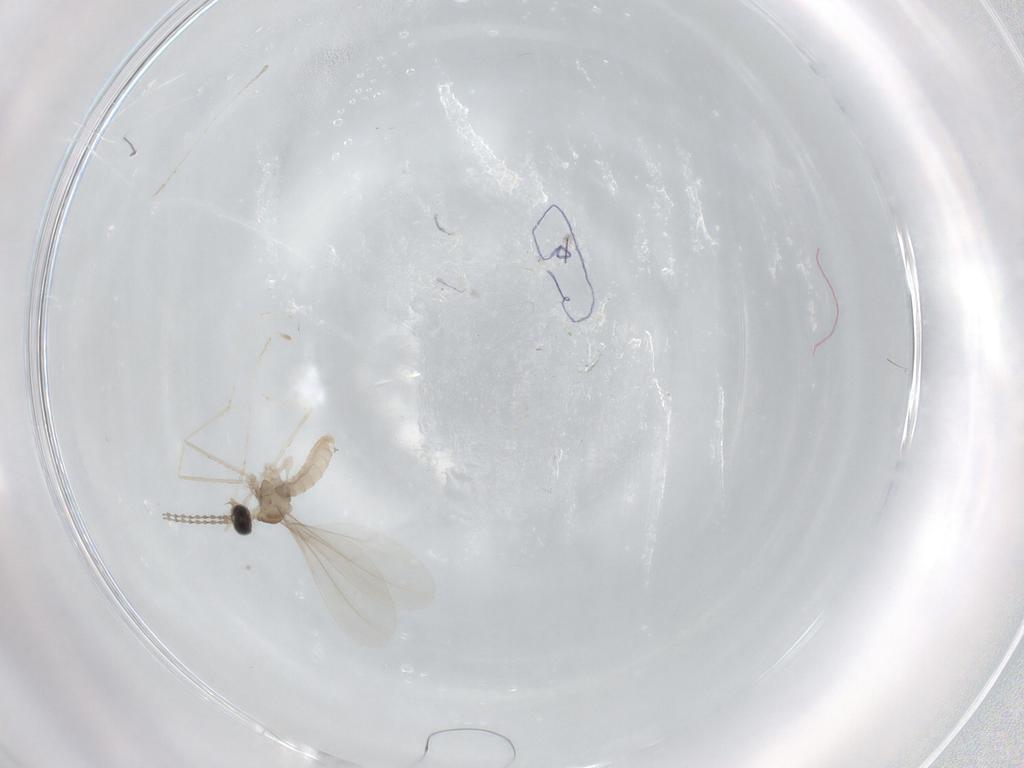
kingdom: Animalia
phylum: Arthropoda
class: Insecta
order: Diptera
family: Cecidomyiidae
